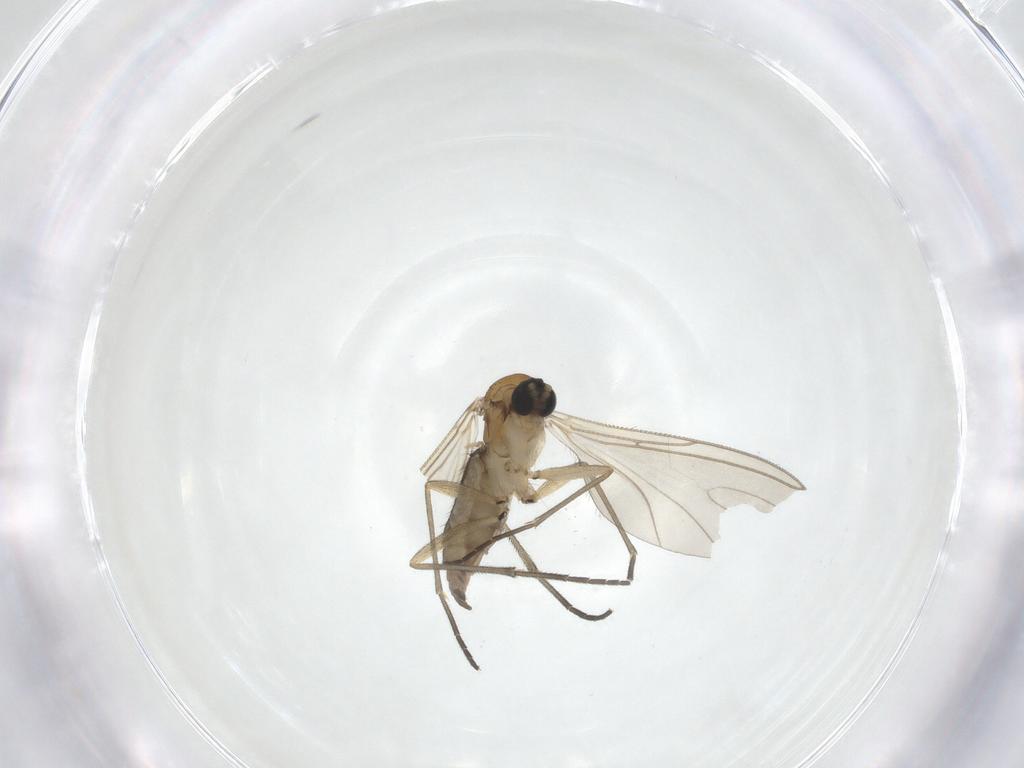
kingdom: Animalia
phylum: Arthropoda
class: Insecta
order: Diptera
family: Sciaridae
